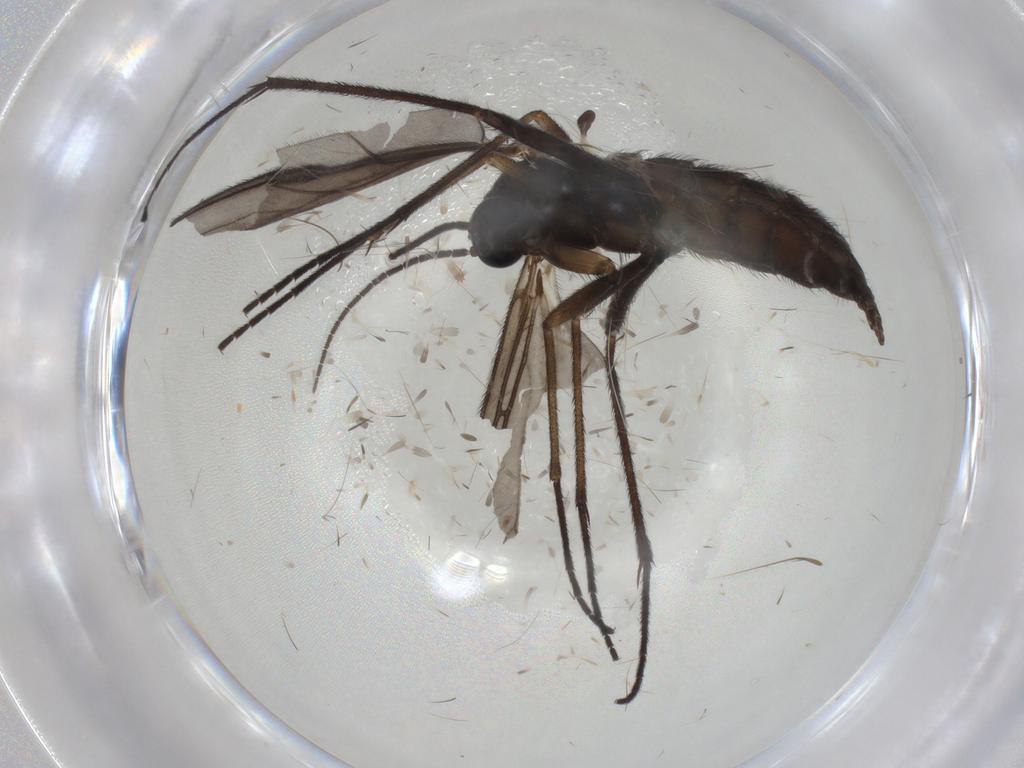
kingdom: Animalia
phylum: Arthropoda
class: Insecta
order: Diptera
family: Sciaridae
